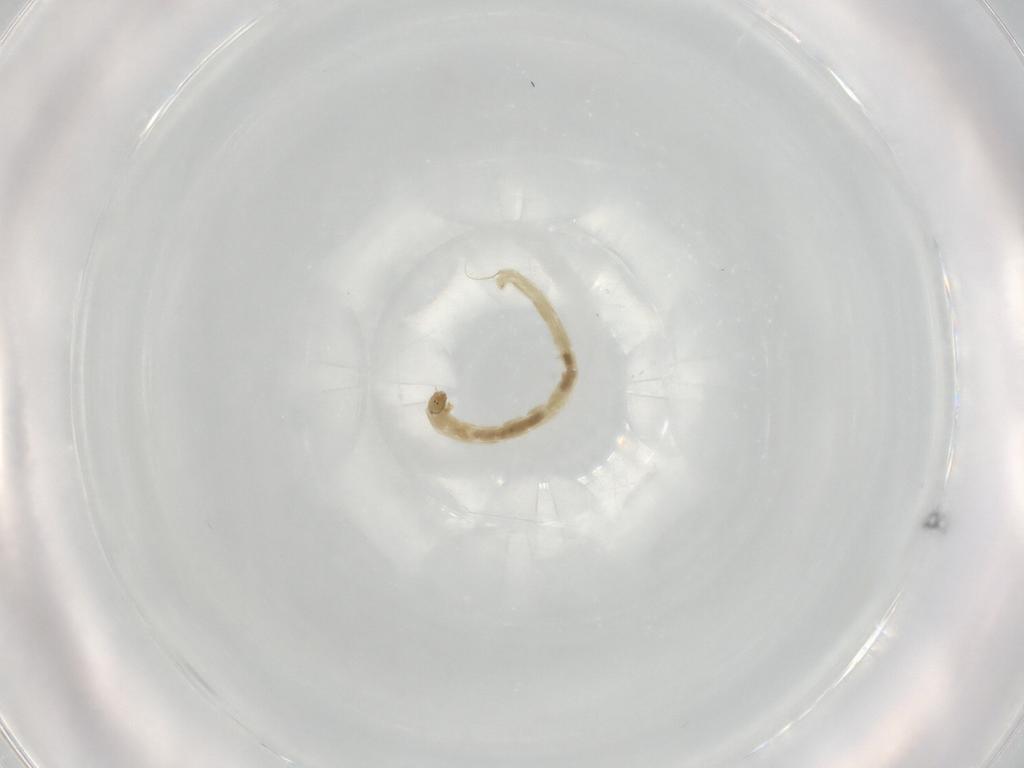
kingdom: Animalia
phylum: Arthropoda
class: Insecta
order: Diptera
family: Chironomidae
